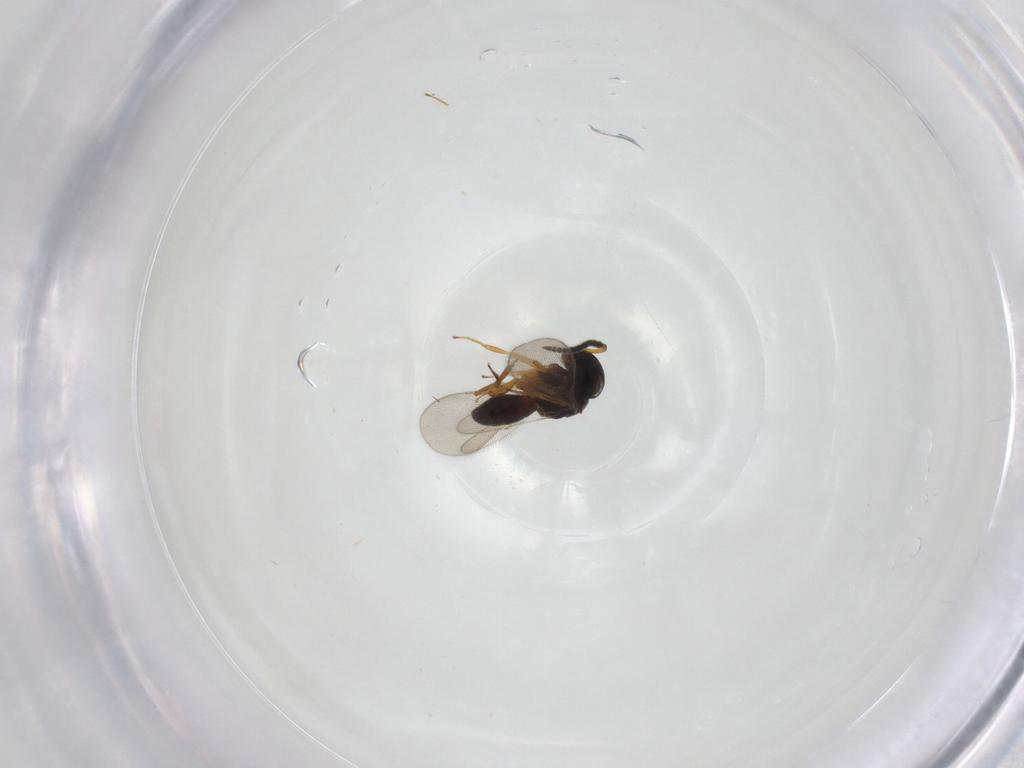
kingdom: Animalia
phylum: Arthropoda
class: Insecta
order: Coleoptera
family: Curculionidae
